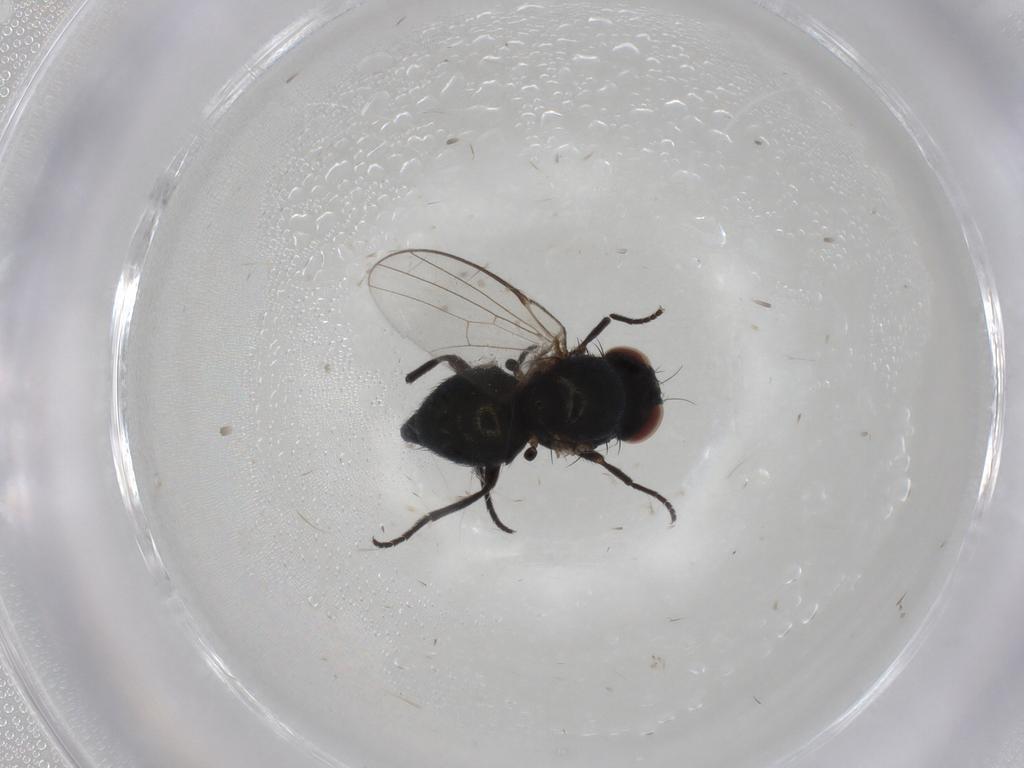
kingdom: Animalia
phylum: Arthropoda
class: Insecta
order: Diptera
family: Agromyzidae
